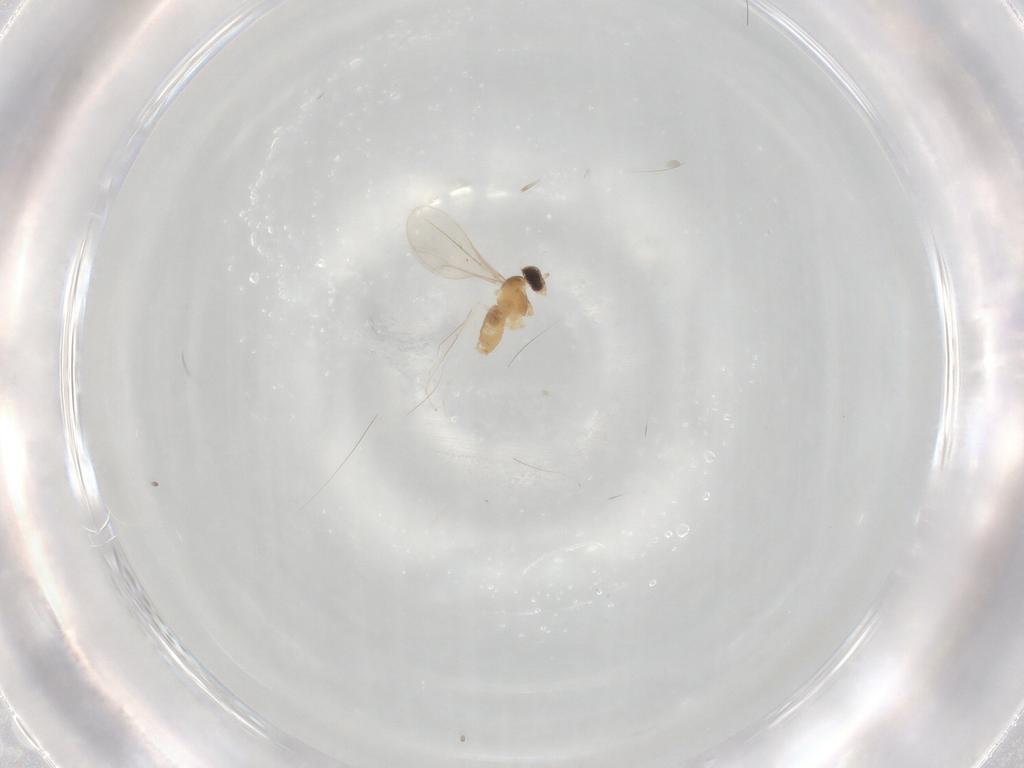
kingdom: Animalia
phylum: Arthropoda
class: Insecta
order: Diptera
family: Cecidomyiidae
